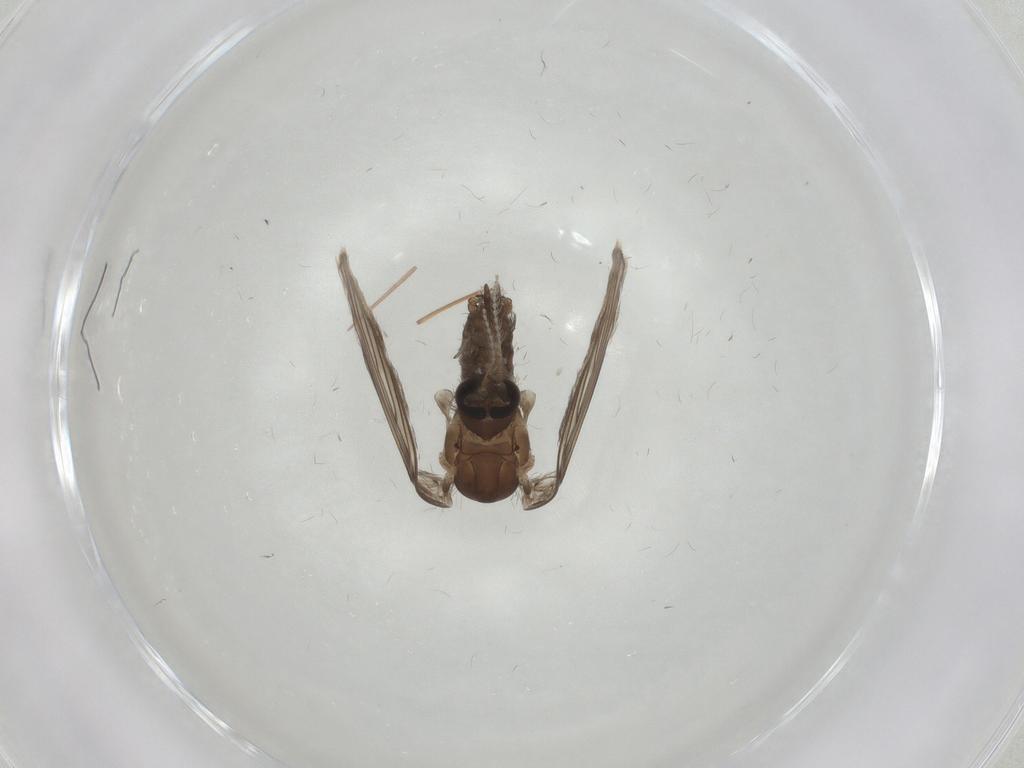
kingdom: Animalia
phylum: Arthropoda
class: Insecta
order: Diptera
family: Psychodidae
